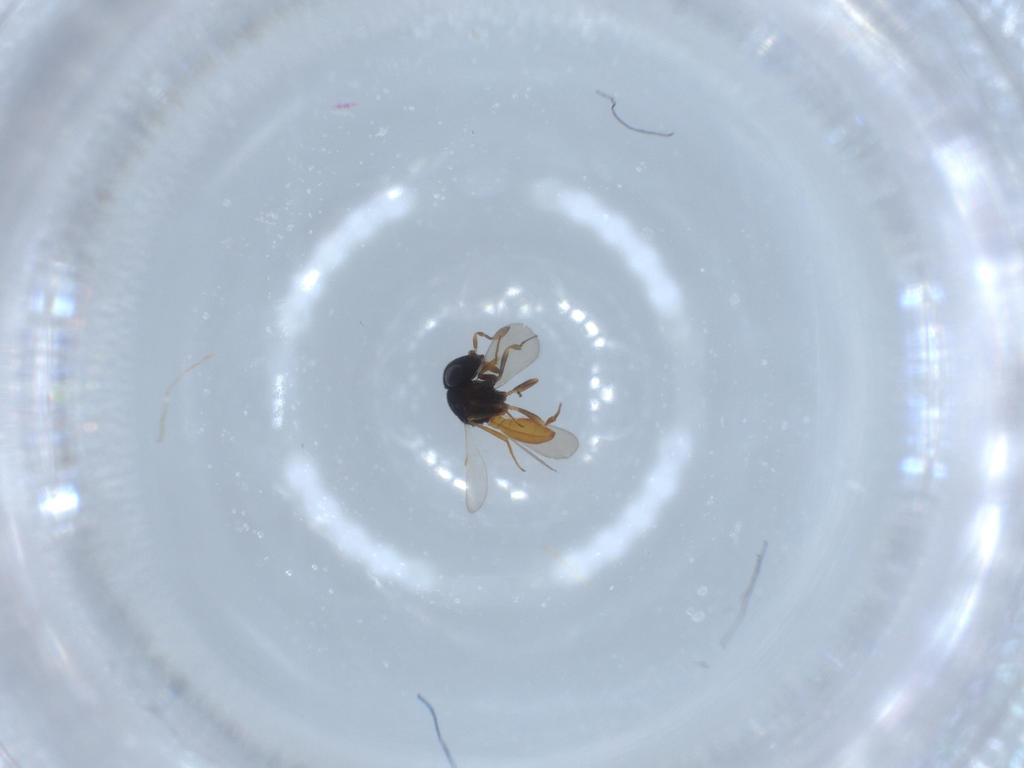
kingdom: Animalia
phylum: Arthropoda
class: Insecta
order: Hymenoptera
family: Scelionidae
